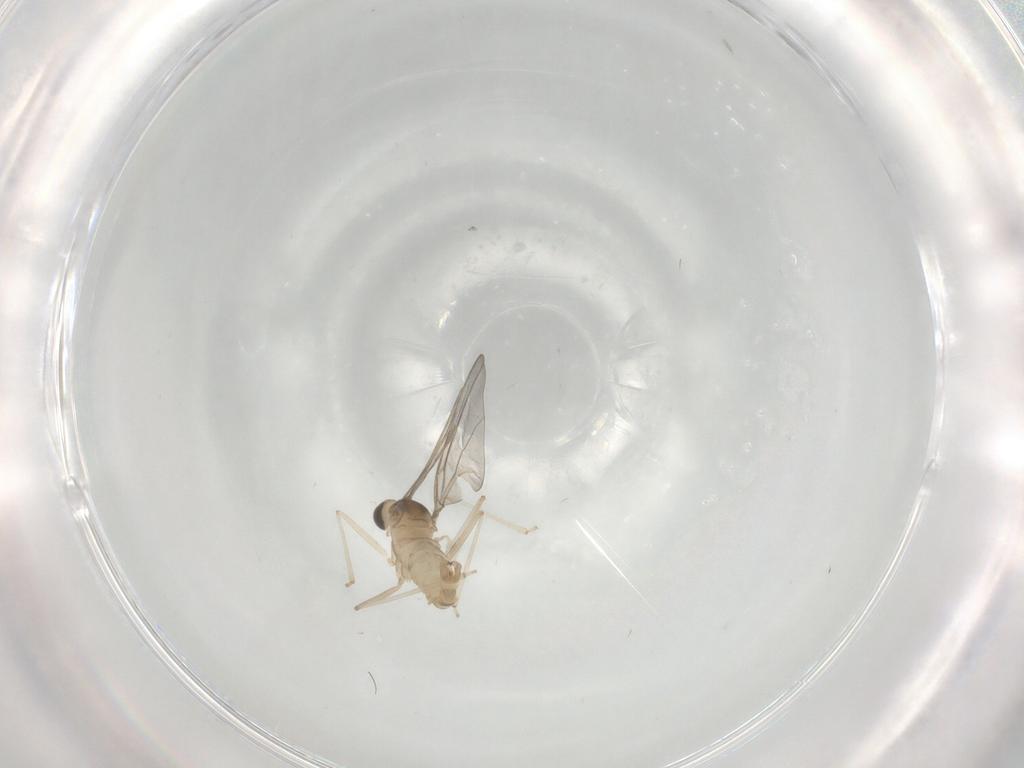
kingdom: Animalia
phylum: Arthropoda
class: Insecta
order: Diptera
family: Cecidomyiidae
